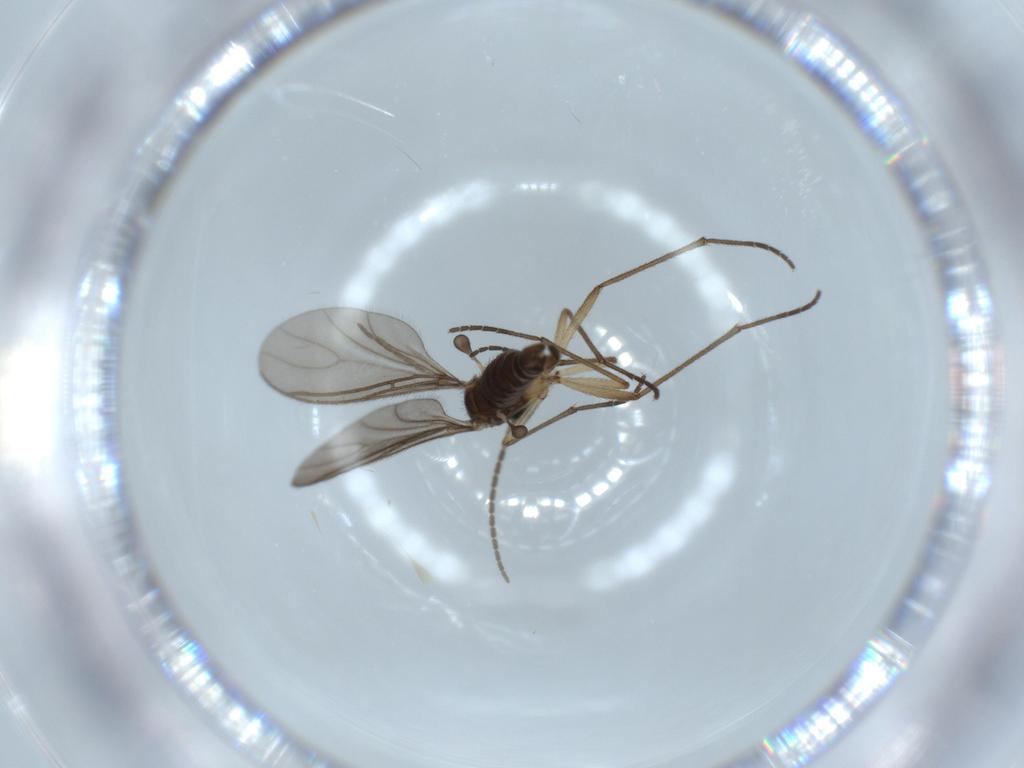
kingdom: Animalia
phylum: Arthropoda
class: Insecta
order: Diptera
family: Sciaridae
